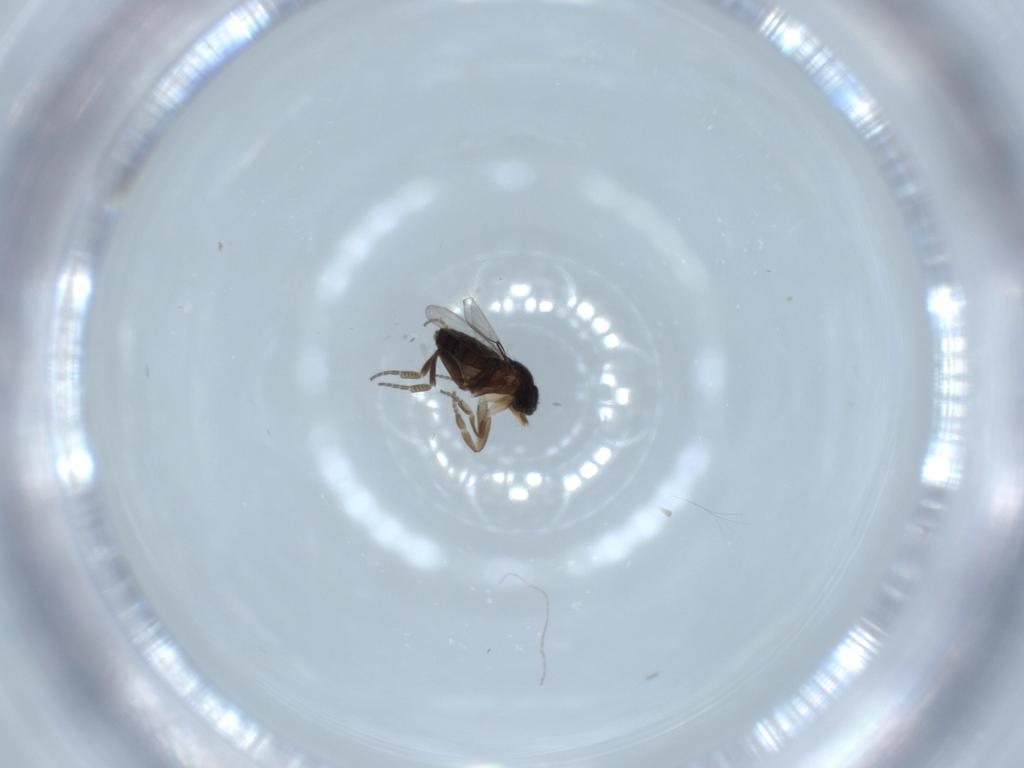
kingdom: Animalia
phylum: Arthropoda
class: Insecta
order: Diptera
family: Phoridae
